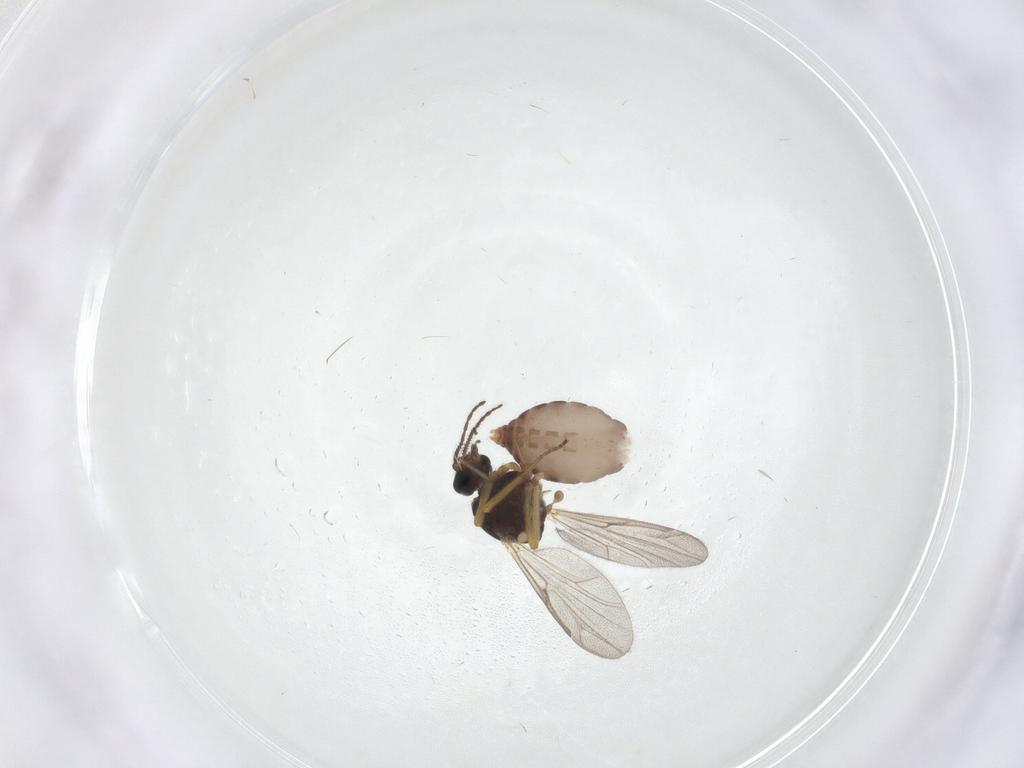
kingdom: Animalia
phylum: Arthropoda
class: Insecta
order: Diptera
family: Ceratopogonidae
